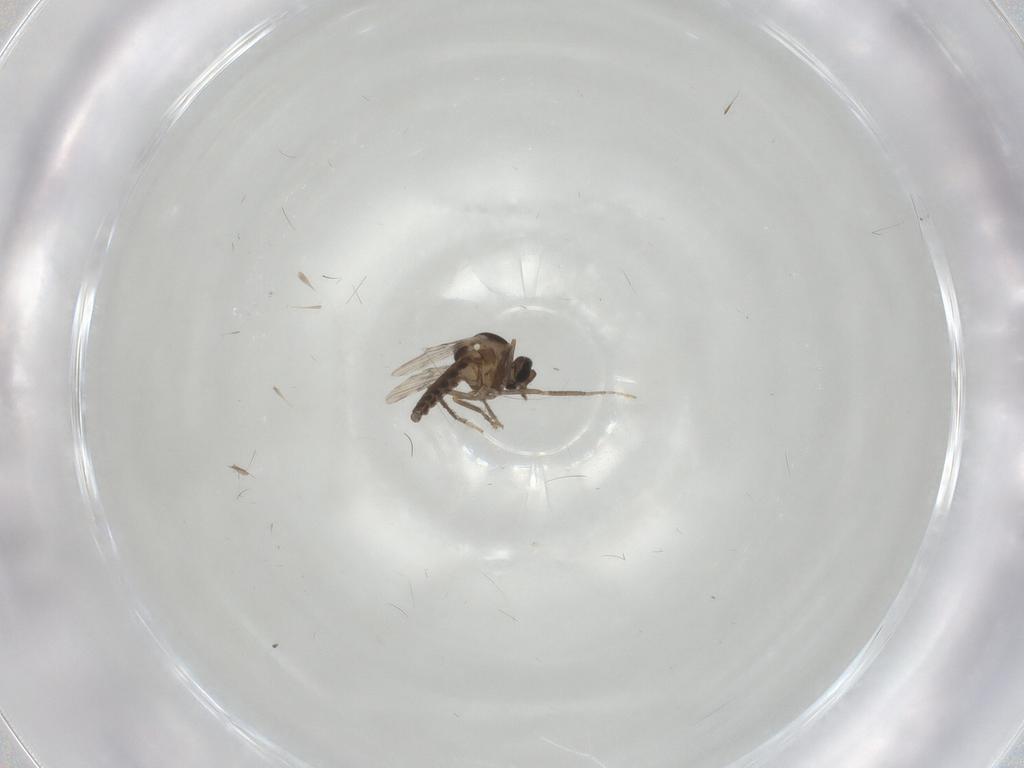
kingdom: Animalia
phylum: Arthropoda
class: Insecta
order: Diptera
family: Ceratopogonidae
